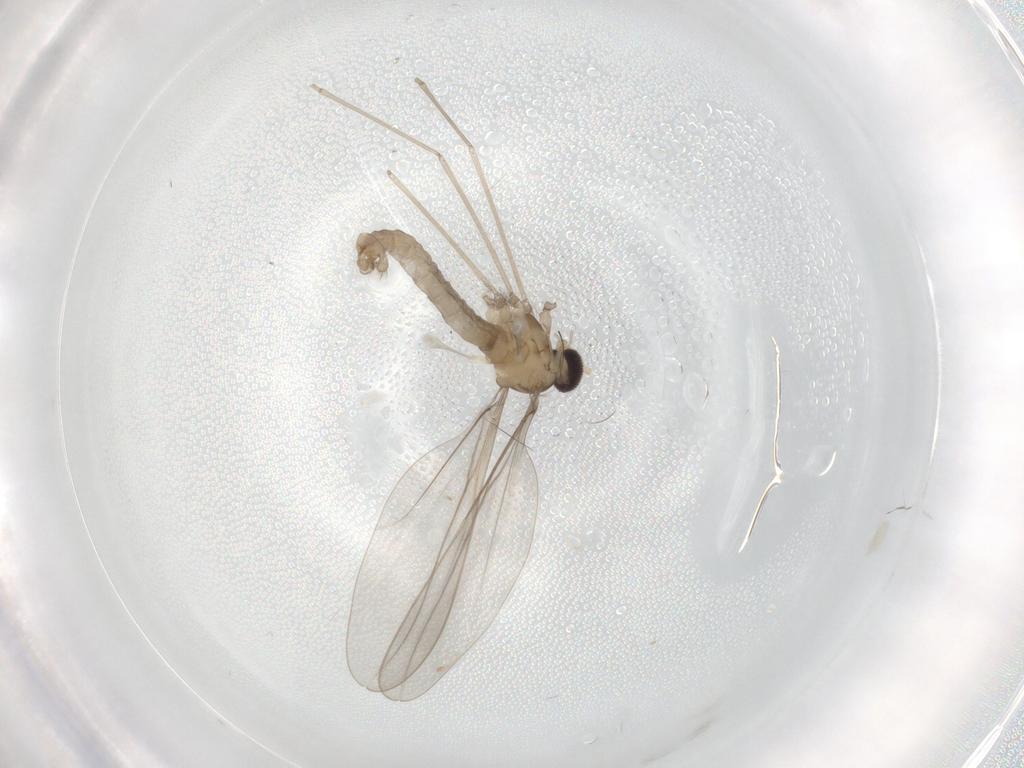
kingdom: Animalia
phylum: Arthropoda
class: Insecta
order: Diptera
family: Cecidomyiidae
